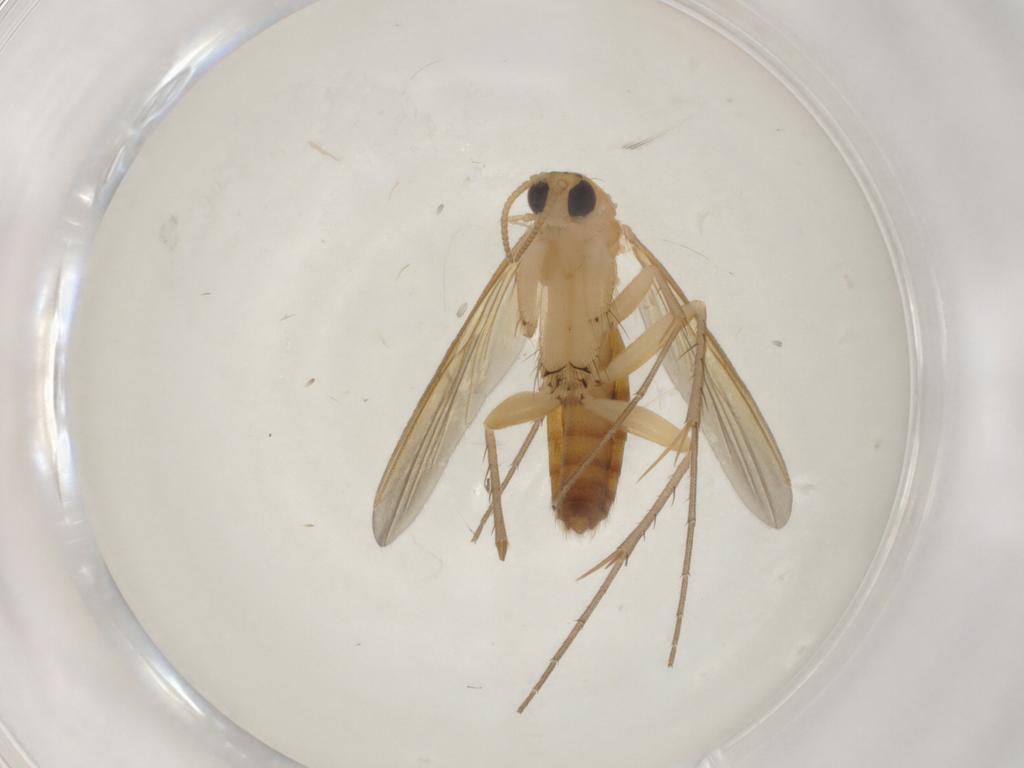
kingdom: Animalia
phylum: Arthropoda
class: Insecta
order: Diptera
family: Mycetophilidae
